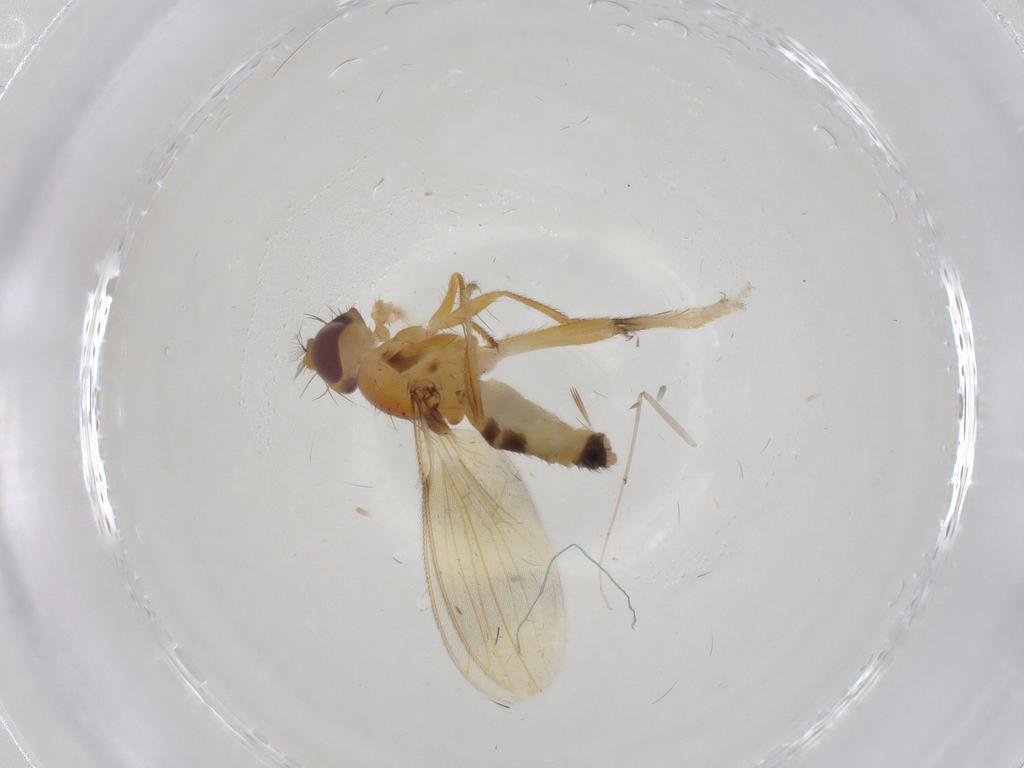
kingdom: Animalia
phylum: Arthropoda
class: Insecta
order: Diptera
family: Periscelididae
